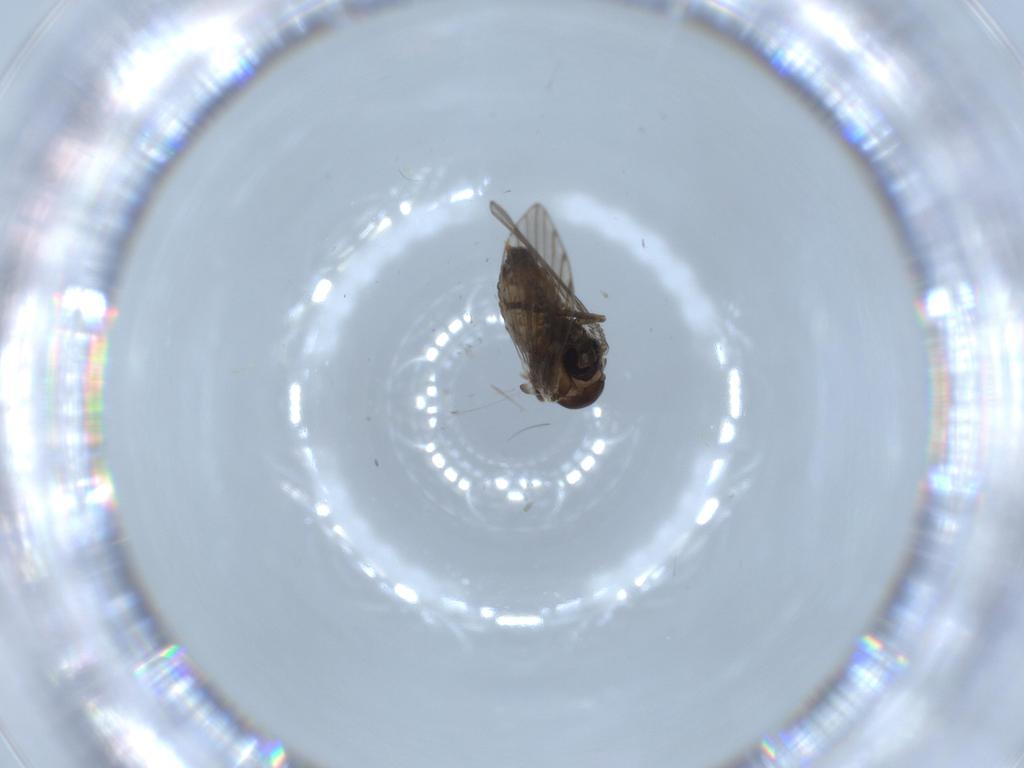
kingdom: Animalia
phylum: Arthropoda
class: Insecta
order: Diptera
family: Psychodidae
